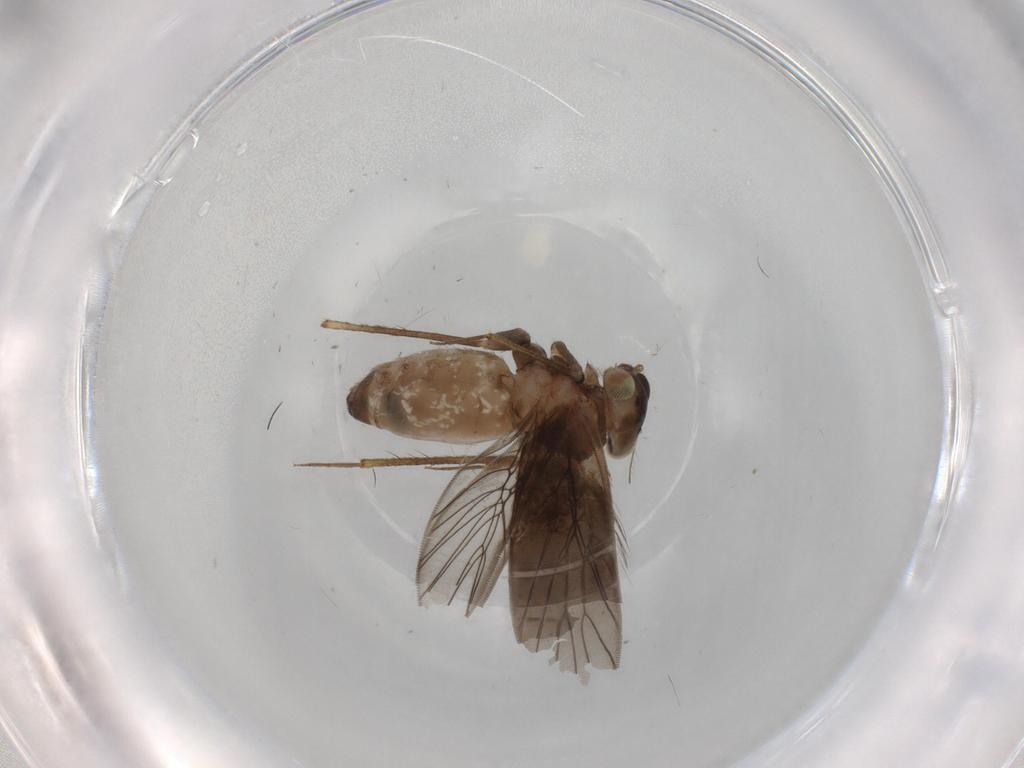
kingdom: Animalia
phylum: Arthropoda
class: Insecta
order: Psocodea
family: Lepidopsocidae
